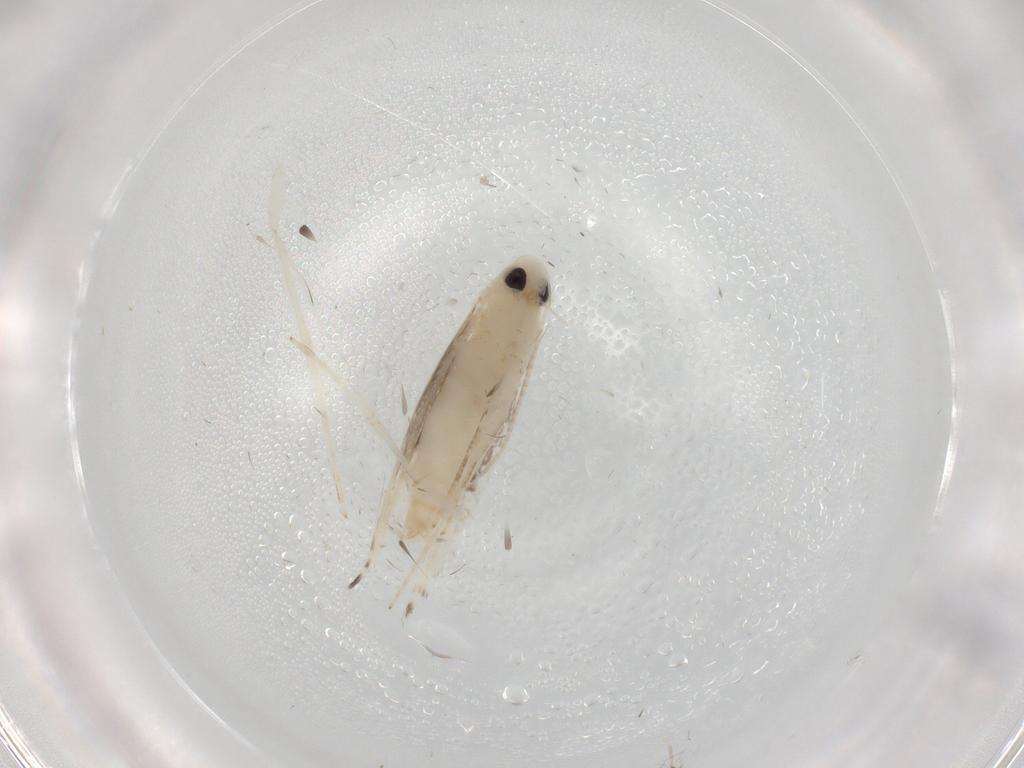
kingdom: Animalia
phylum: Arthropoda
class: Insecta
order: Lepidoptera
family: Gracillariidae
